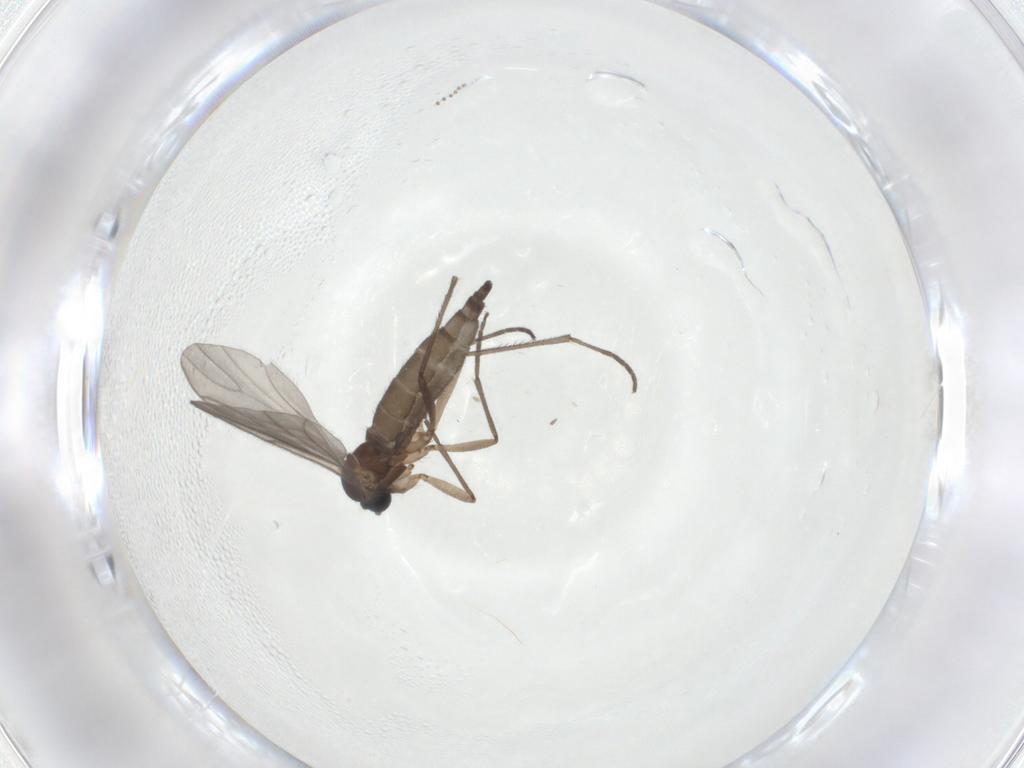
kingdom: Animalia
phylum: Arthropoda
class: Insecta
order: Diptera
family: Sciaridae
